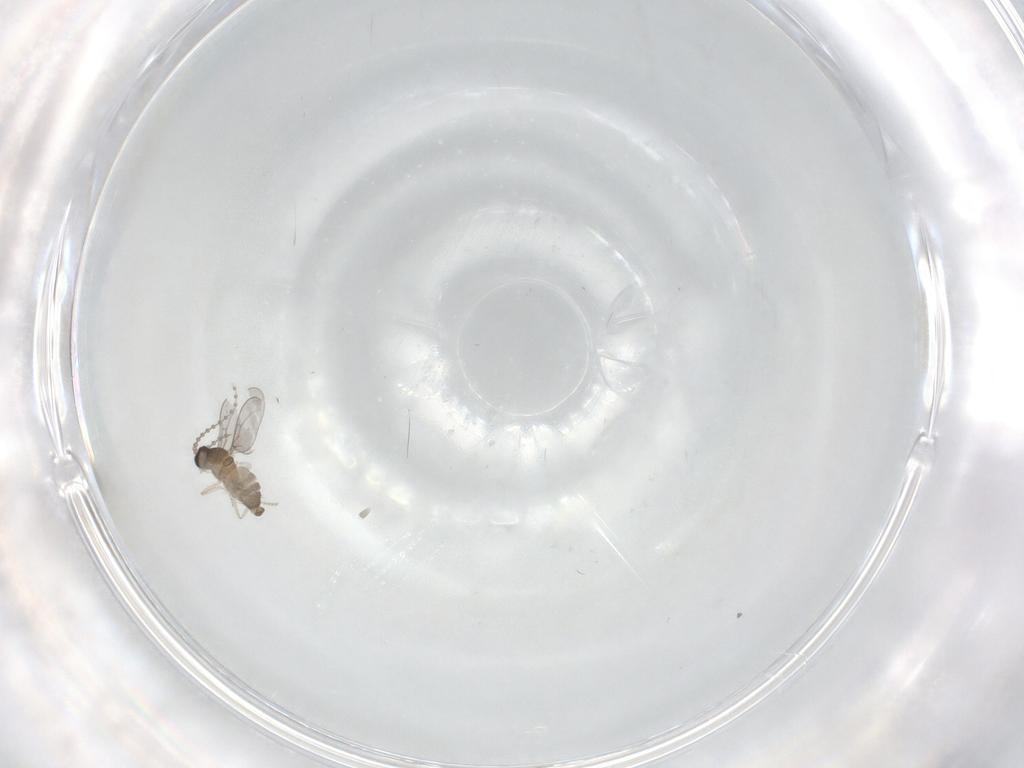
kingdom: Animalia
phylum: Arthropoda
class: Insecta
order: Diptera
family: Cecidomyiidae
